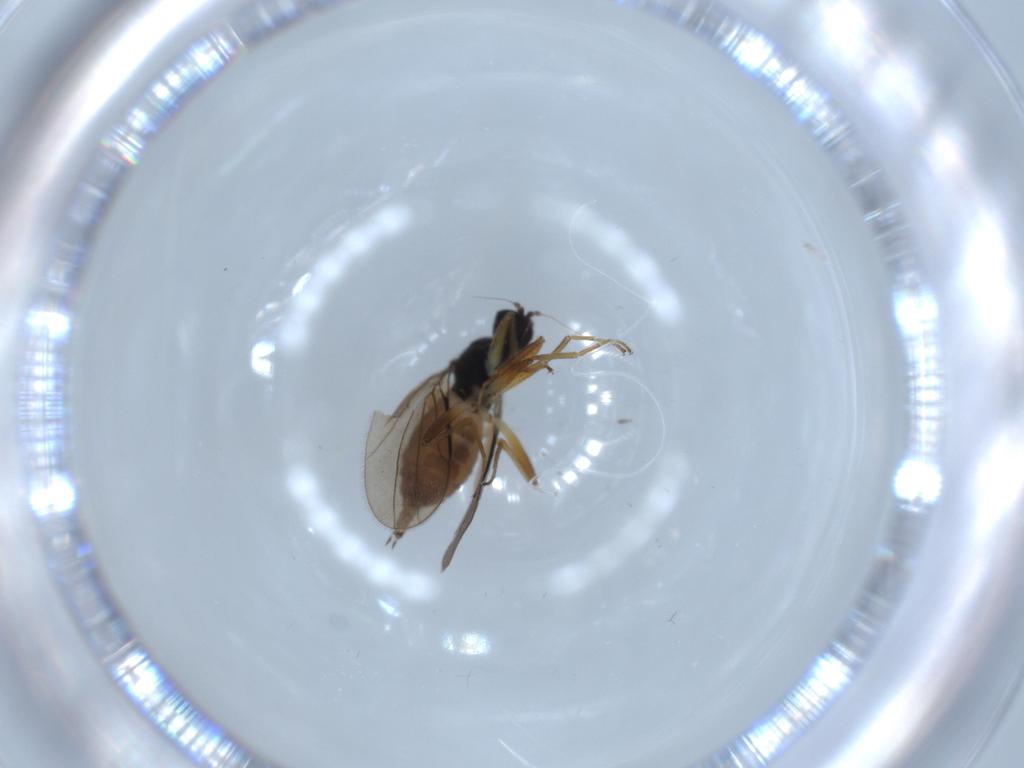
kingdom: Animalia
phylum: Arthropoda
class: Insecta
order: Diptera
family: Hybotidae
